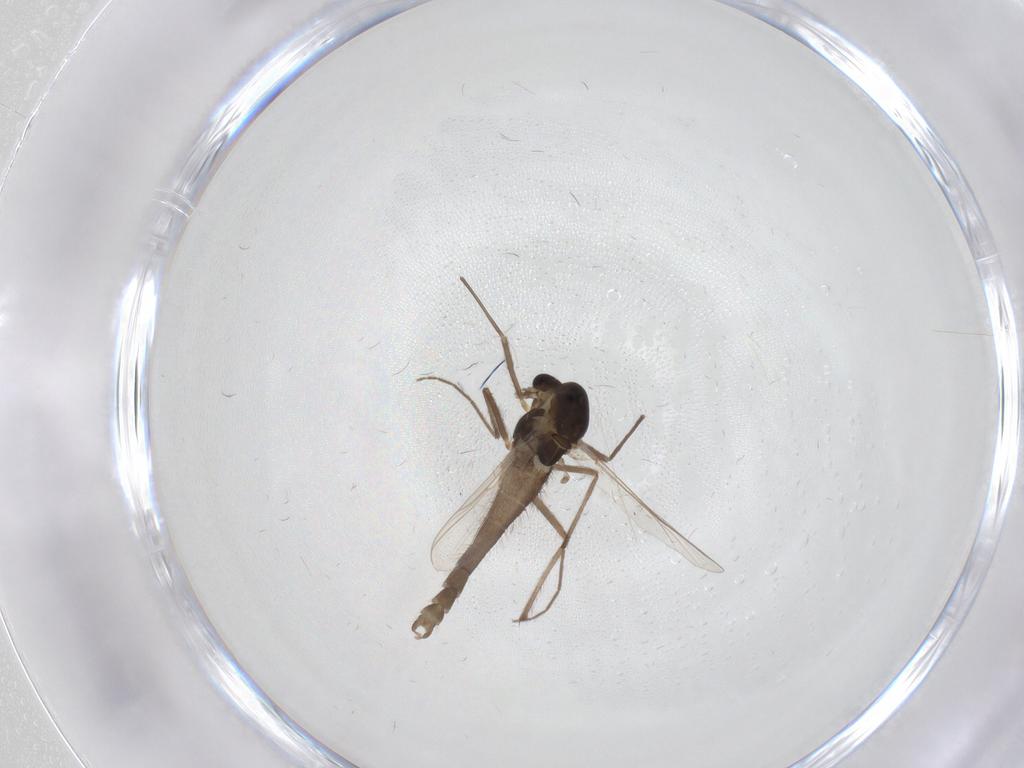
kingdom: Animalia
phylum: Arthropoda
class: Insecta
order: Diptera
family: Chironomidae
